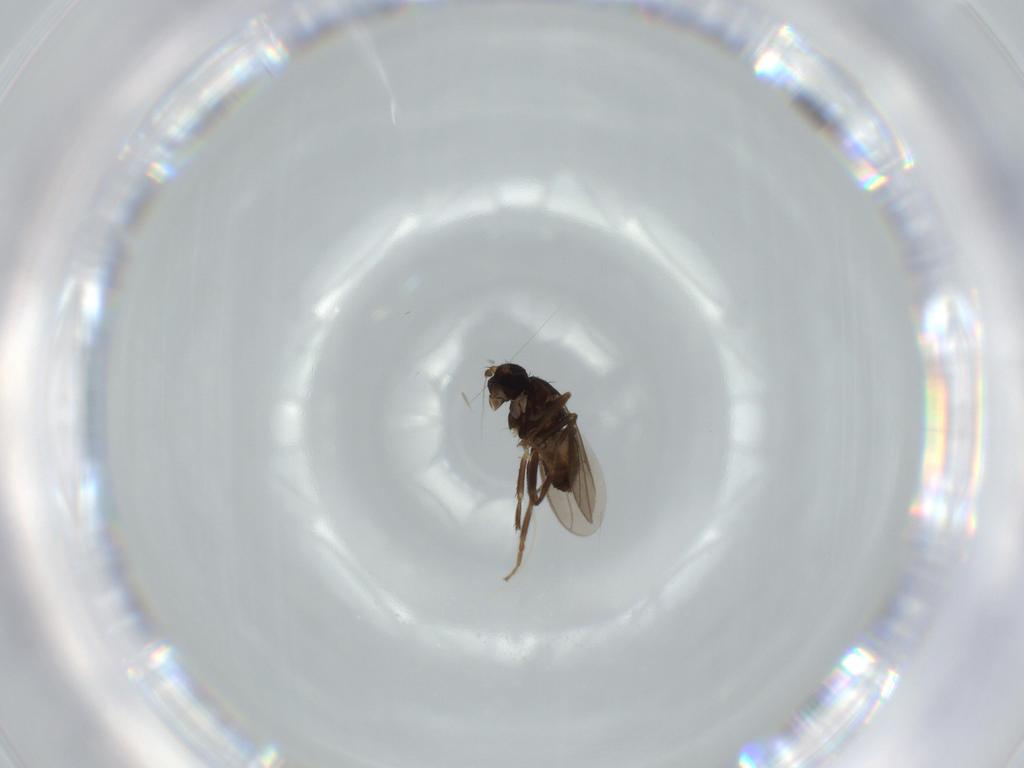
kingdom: Animalia
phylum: Arthropoda
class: Insecta
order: Diptera
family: Sphaeroceridae
